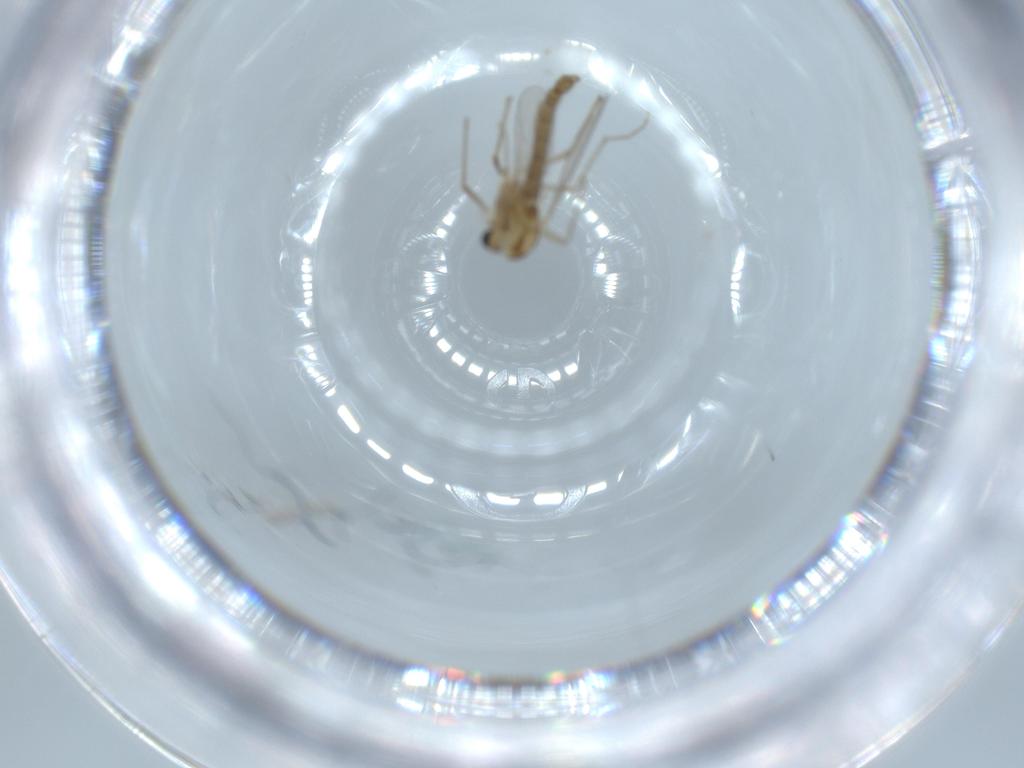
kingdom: Animalia
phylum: Arthropoda
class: Insecta
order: Diptera
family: Chironomidae
